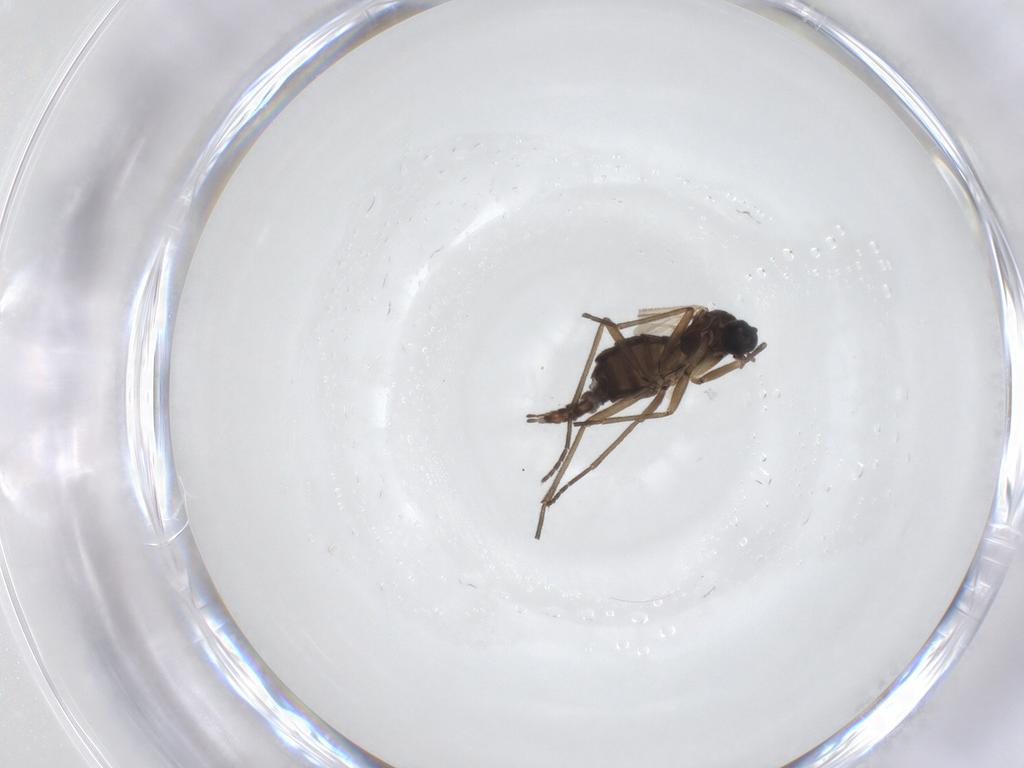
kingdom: Animalia
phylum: Arthropoda
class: Insecta
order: Diptera
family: Sciaridae
